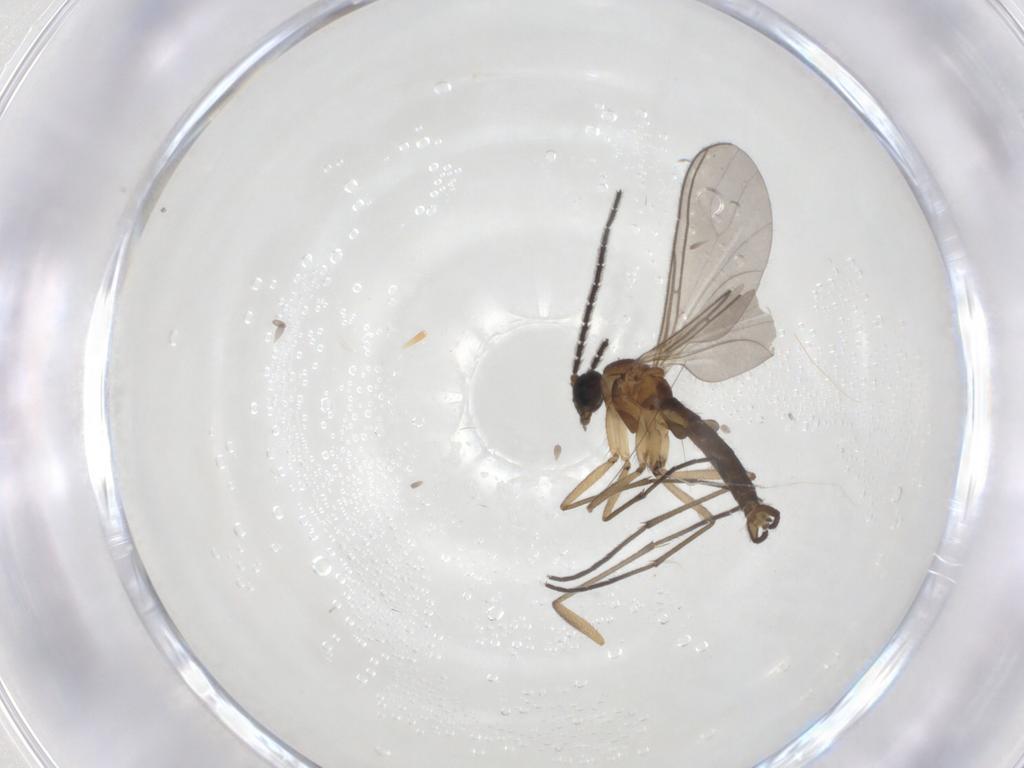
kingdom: Animalia
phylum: Arthropoda
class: Insecta
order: Diptera
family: Sciaridae
